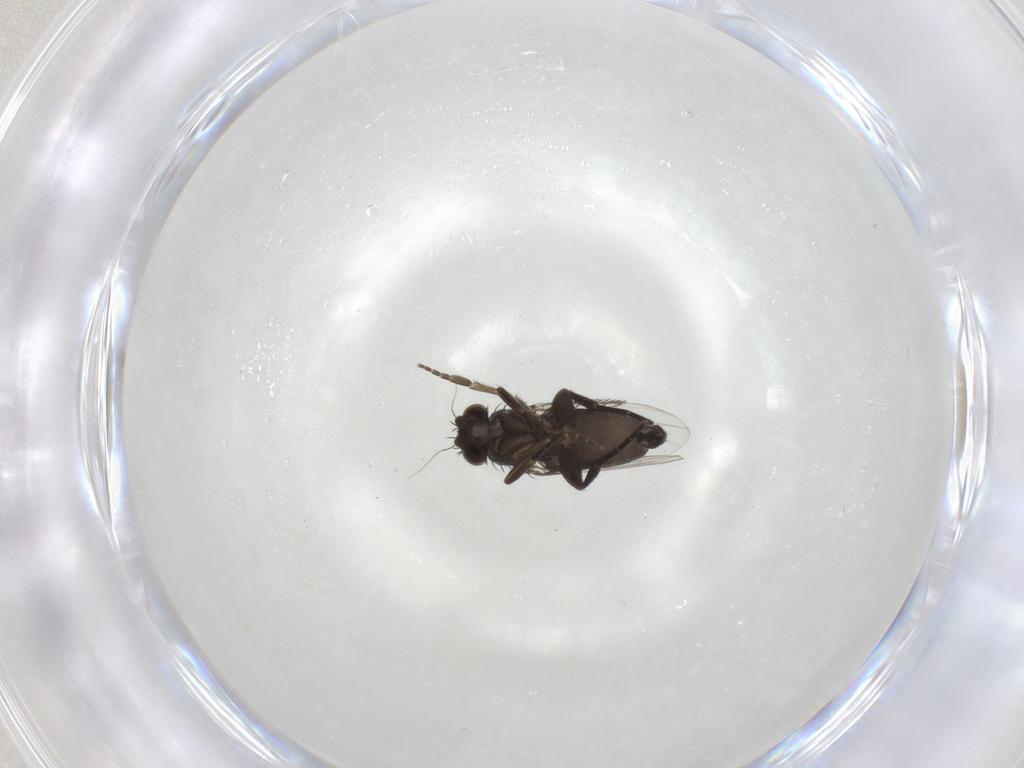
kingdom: Animalia
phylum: Arthropoda
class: Insecta
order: Diptera
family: Phoridae
